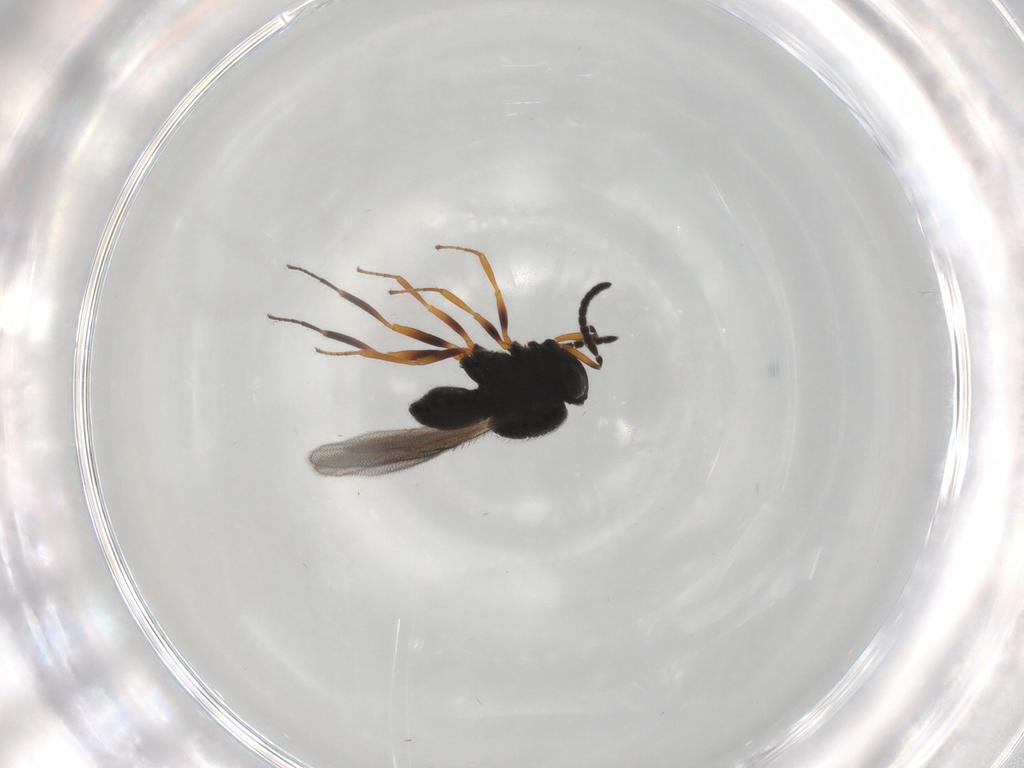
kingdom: Animalia
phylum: Arthropoda
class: Insecta
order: Hymenoptera
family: Scelionidae
